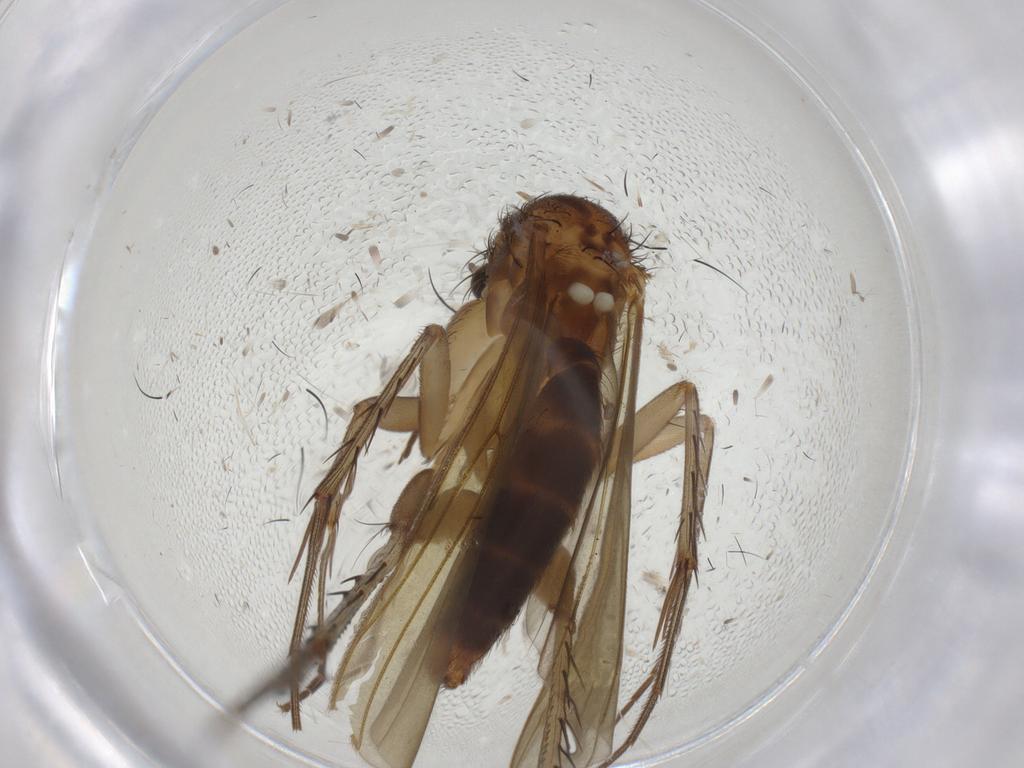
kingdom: Animalia
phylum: Arthropoda
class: Insecta
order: Diptera
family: Mycetophilidae
